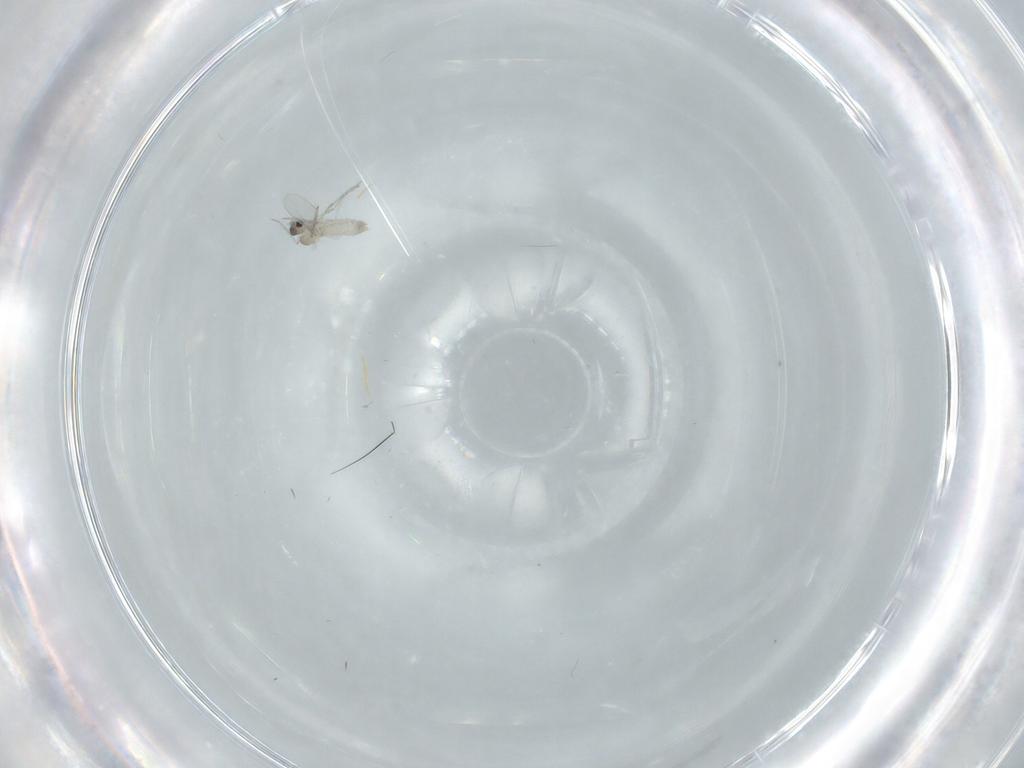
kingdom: Animalia
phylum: Arthropoda
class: Insecta
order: Diptera
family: Cecidomyiidae
